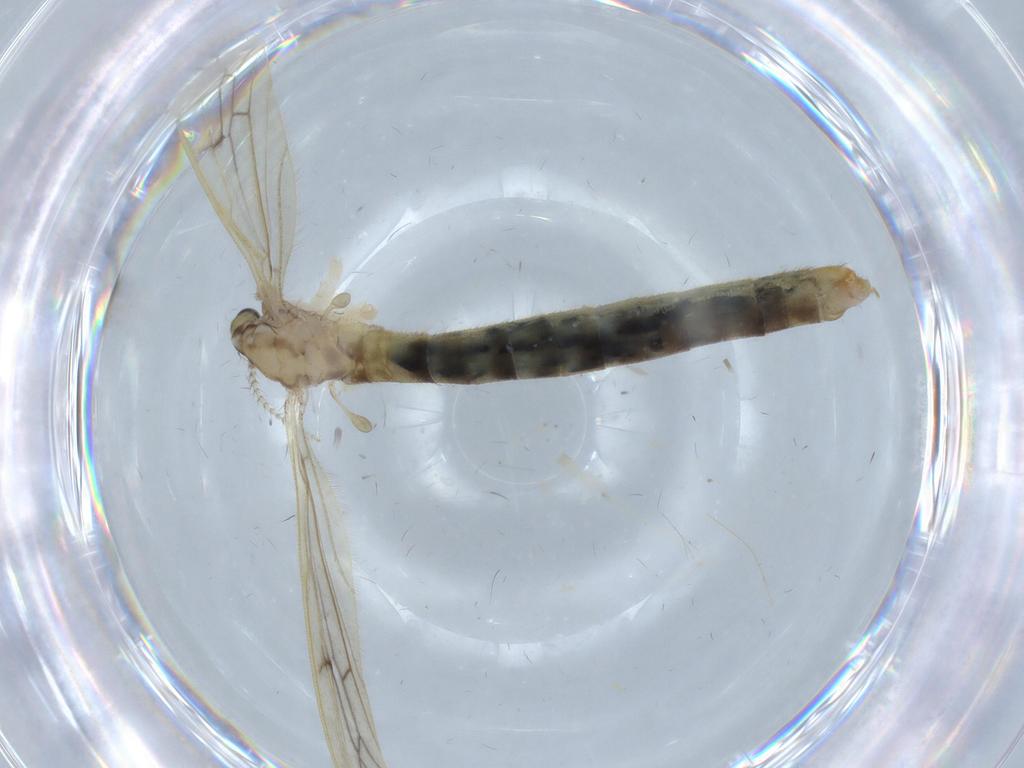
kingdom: Animalia
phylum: Arthropoda
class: Insecta
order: Diptera
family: Limoniidae
